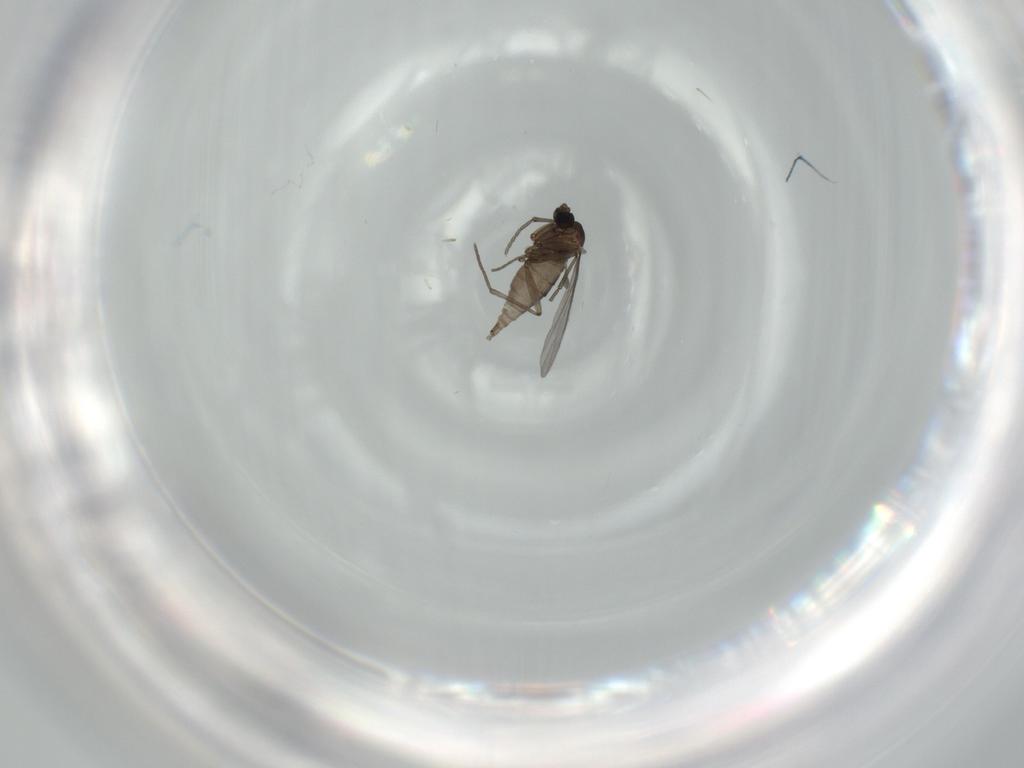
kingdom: Animalia
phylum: Arthropoda
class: Insecta
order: Diptera
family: Sciaridae
